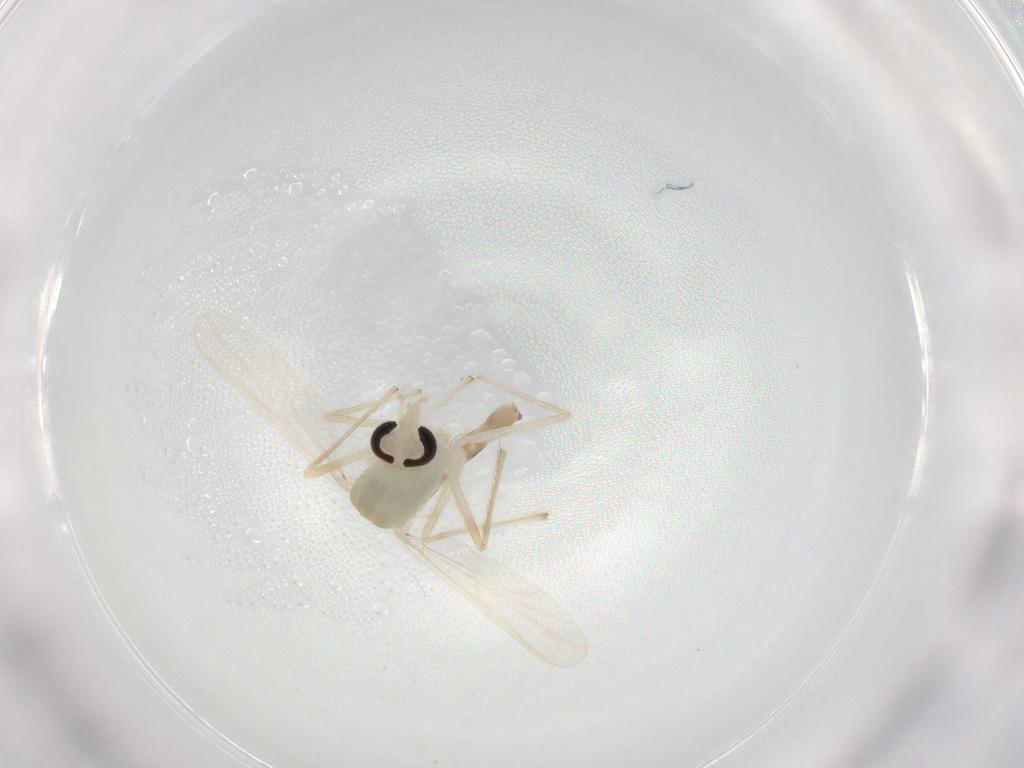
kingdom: Animalia
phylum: Arthropoda
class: Insecta
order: Diptera
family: Chironomidae
